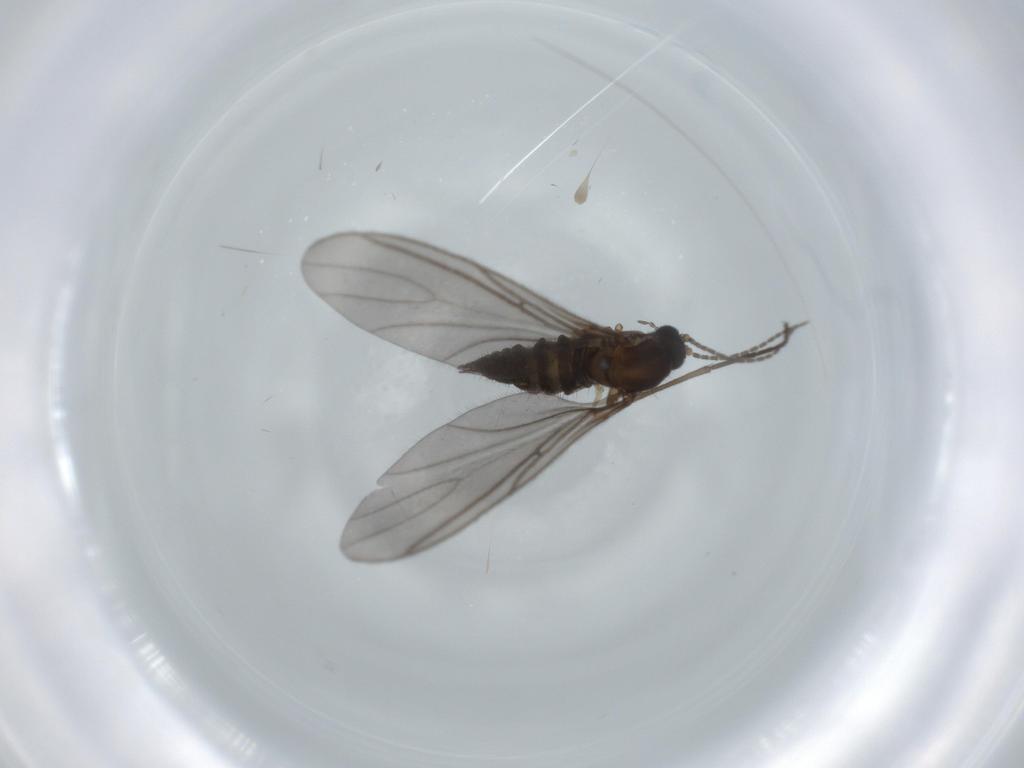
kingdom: Animalia
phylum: Arthropoda
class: Insecta
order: Diptera
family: Sciaridae
